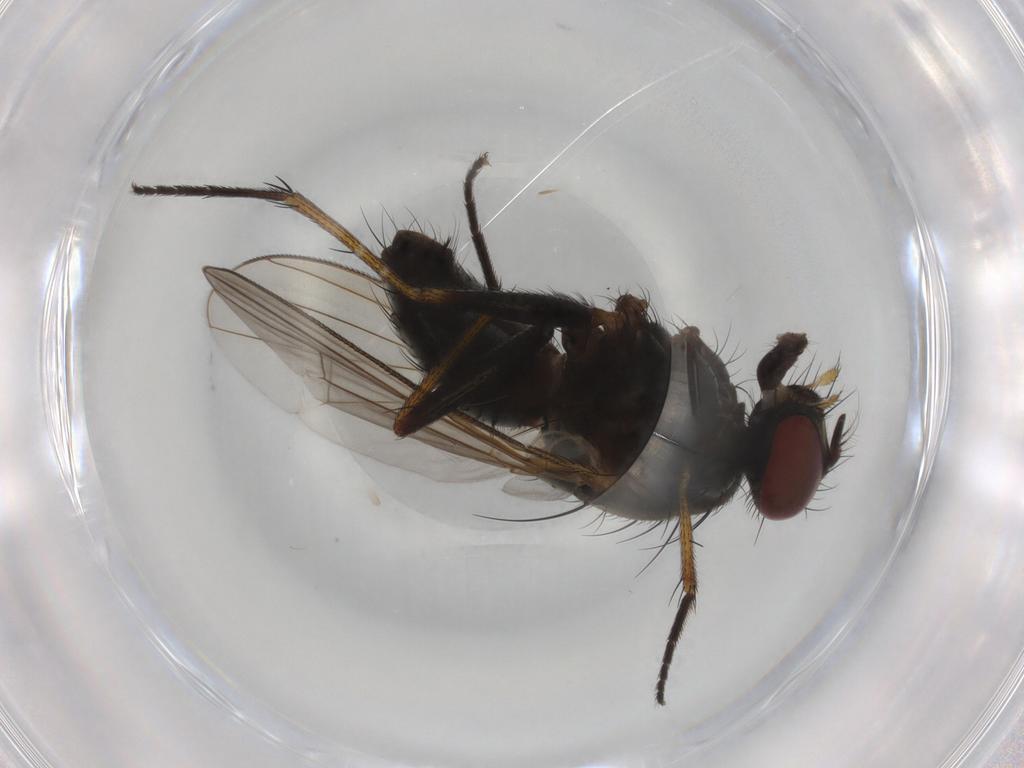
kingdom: Animalia
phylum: Arthropoda
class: Insecta
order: Diptera
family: Muscidae
